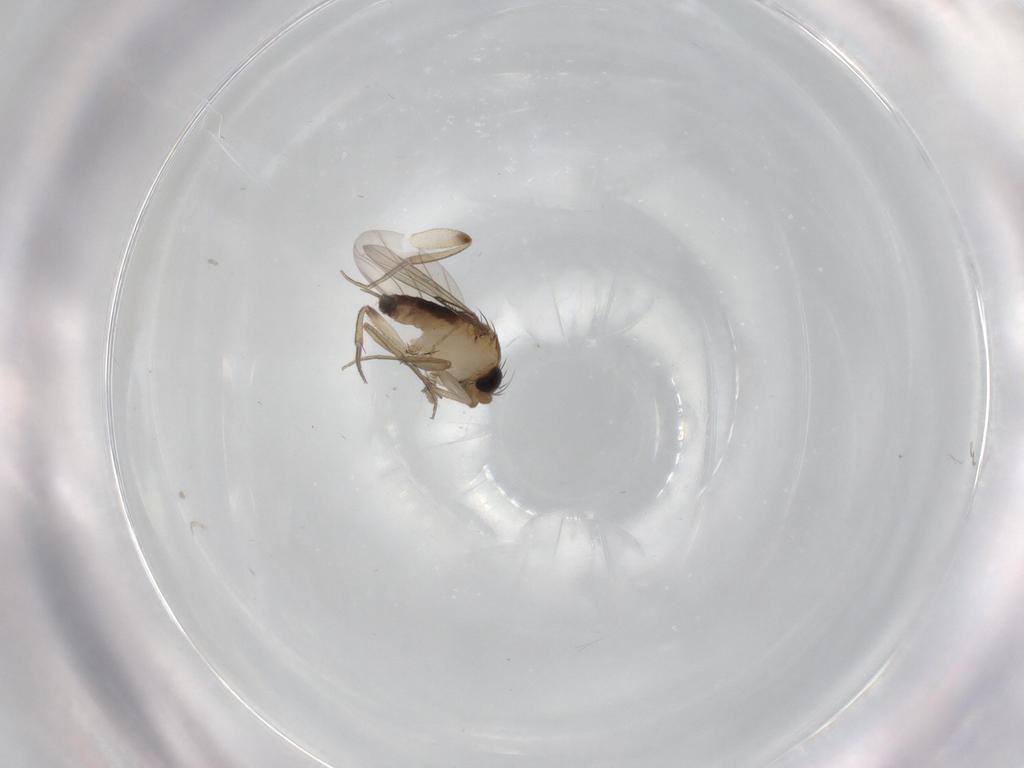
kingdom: Animalia
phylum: Arthropoda
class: Insecta
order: Diptera
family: Phoridae
